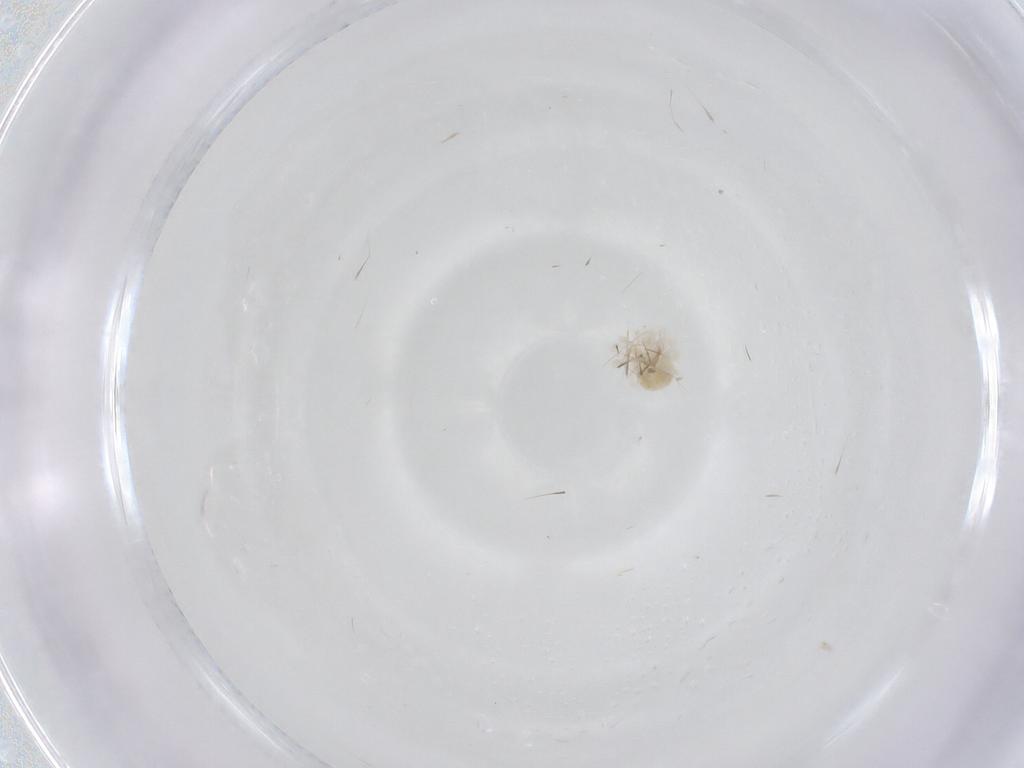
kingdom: Animalia
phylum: Arthropoda
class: Arachnida
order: Trombidiformes
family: Anystidae
